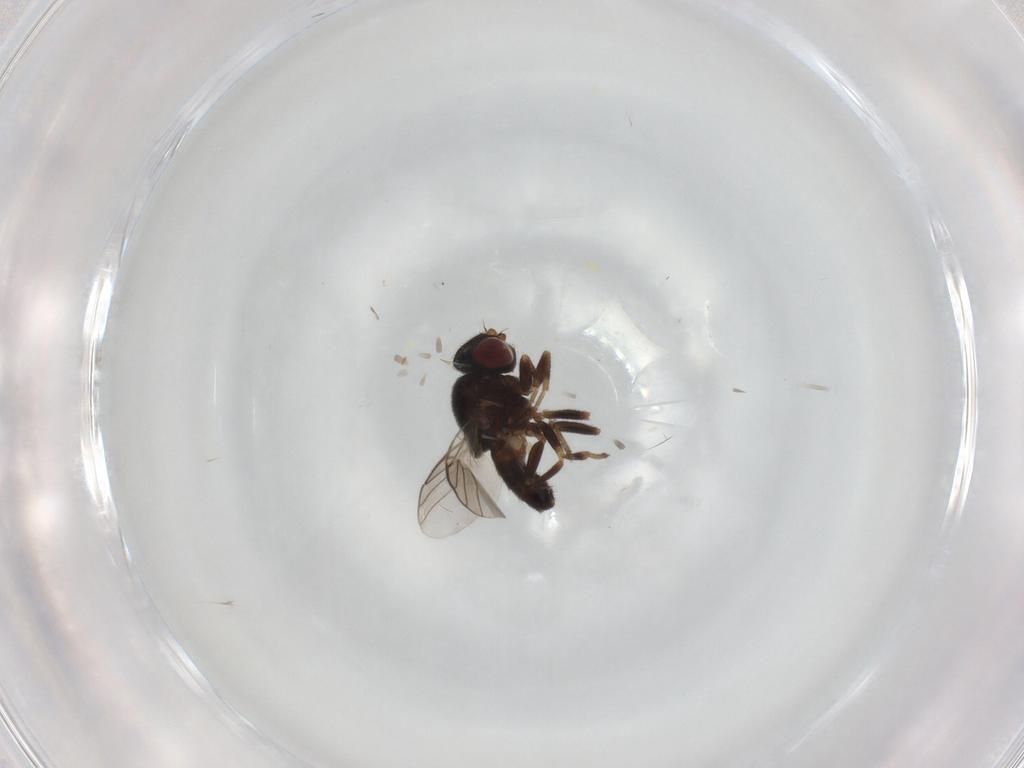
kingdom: Animalia
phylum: Arthropoda
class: Insecta
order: Diptera
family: Chloropidae
